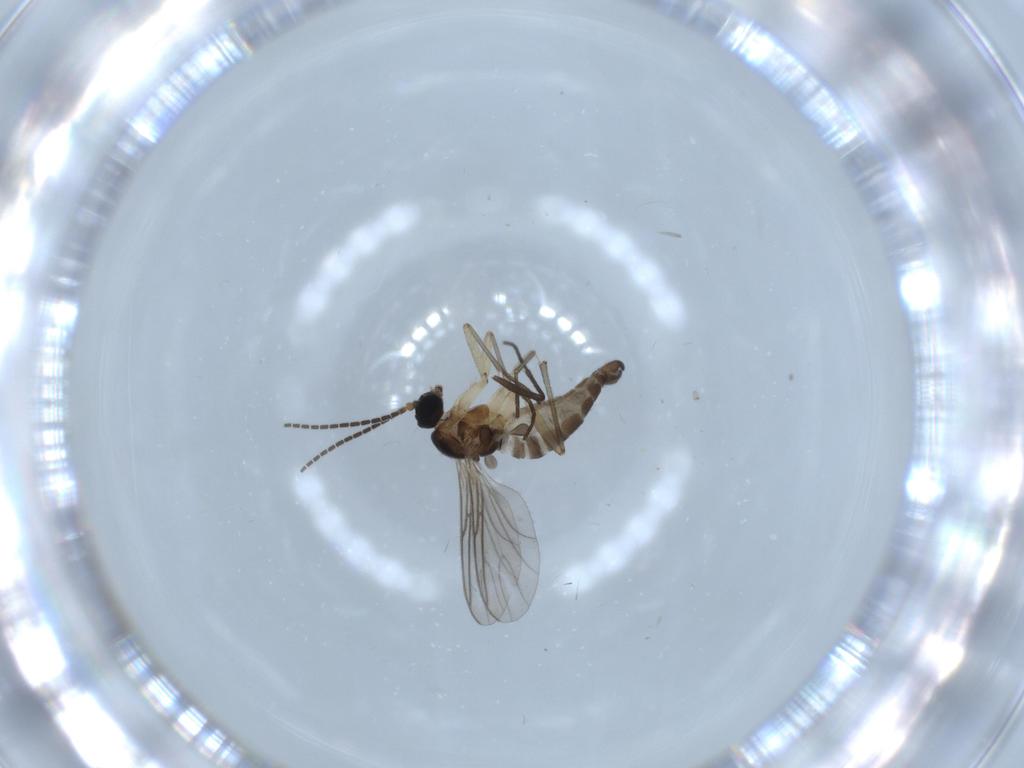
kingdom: Animalia
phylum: Arthropoda
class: Insecta
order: Diptera
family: Sciaridae
